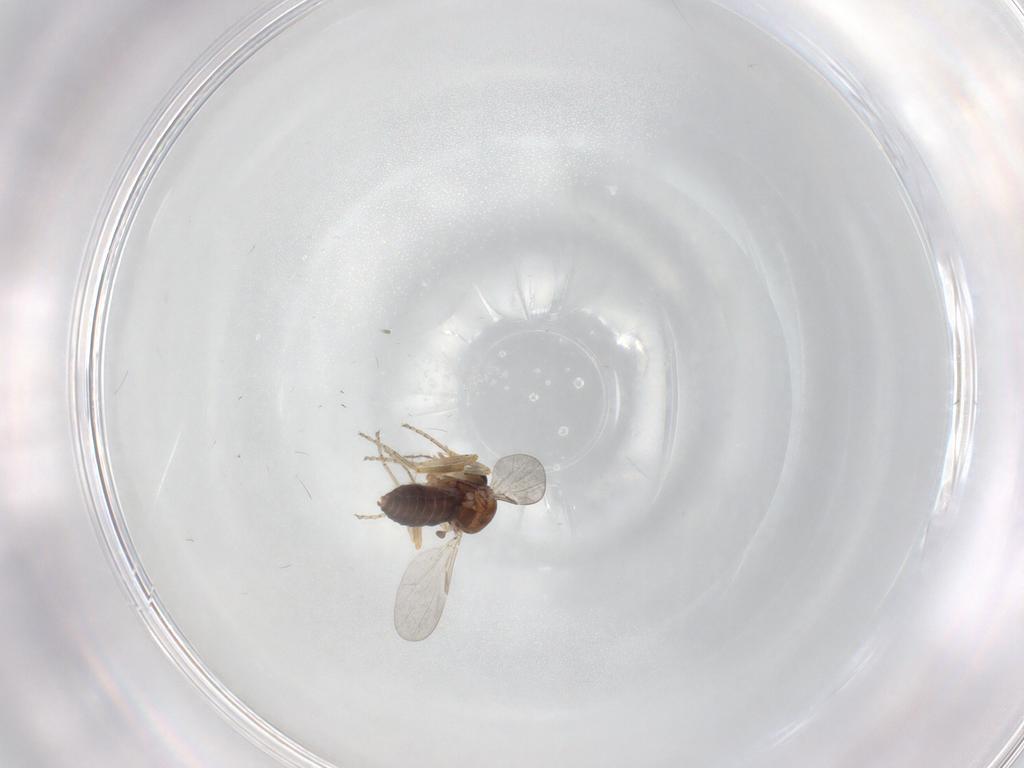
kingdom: Animalia
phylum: Arthropoda
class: Insecta
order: Diptera
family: Ceratopogonidae
